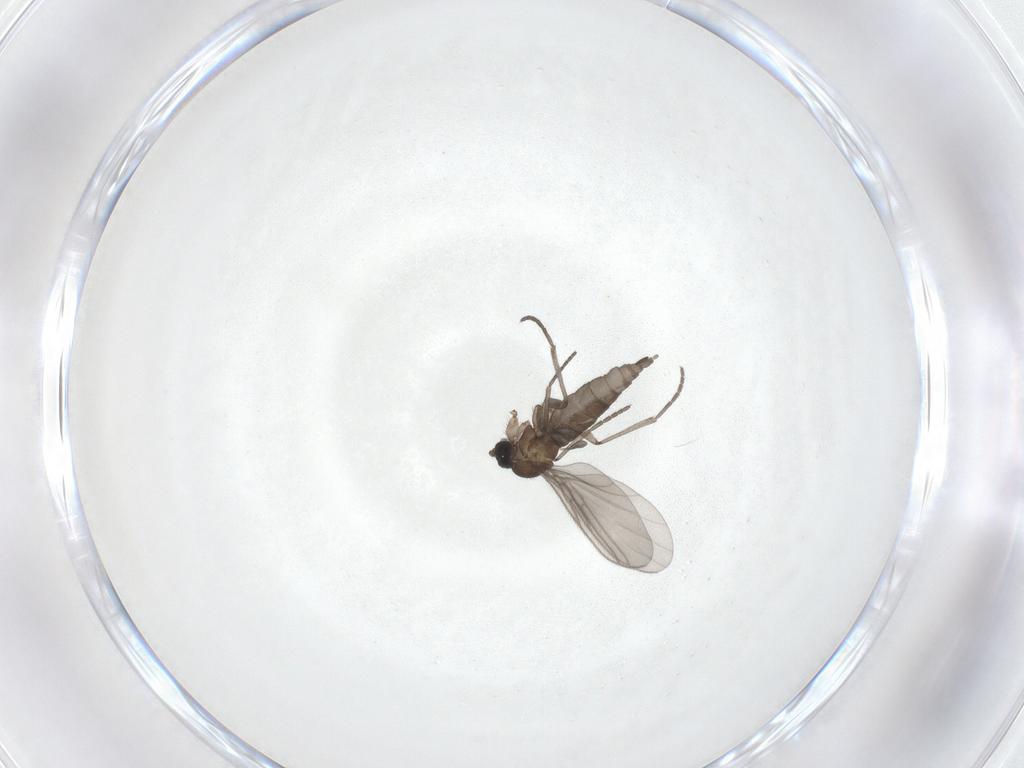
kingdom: Animalia
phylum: Arthropoda
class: Insecta
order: Diptera
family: Sciaridae
